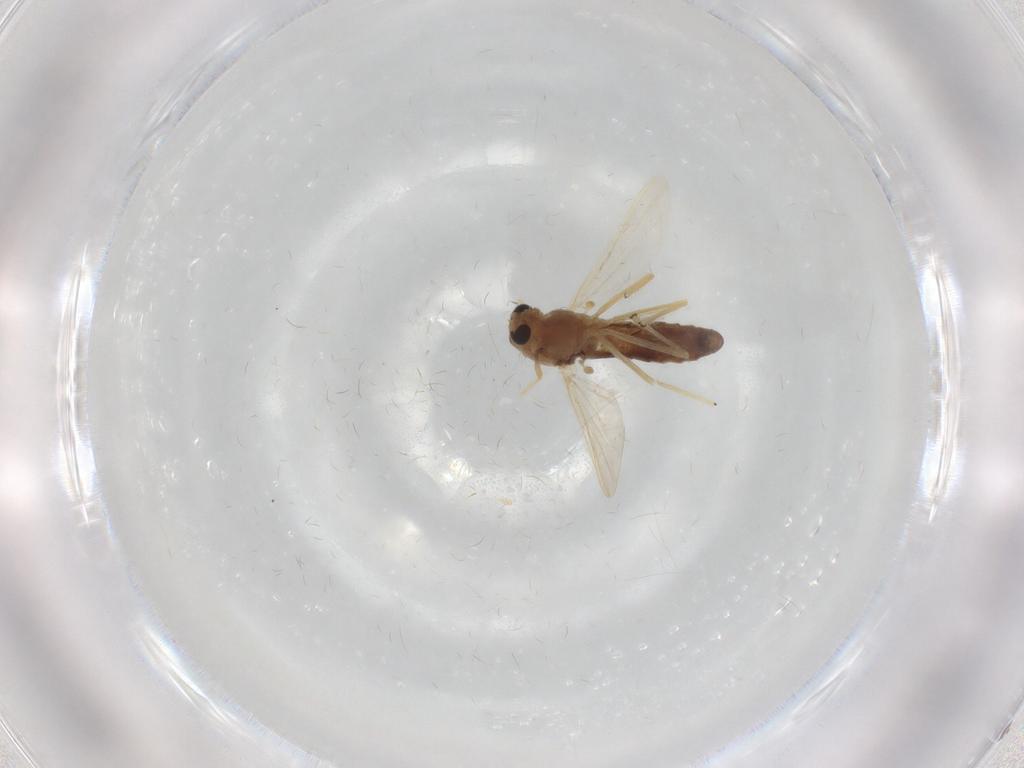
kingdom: Animalia
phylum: Arthropoda
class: Insecta
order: Diptera
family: Chironomidae
